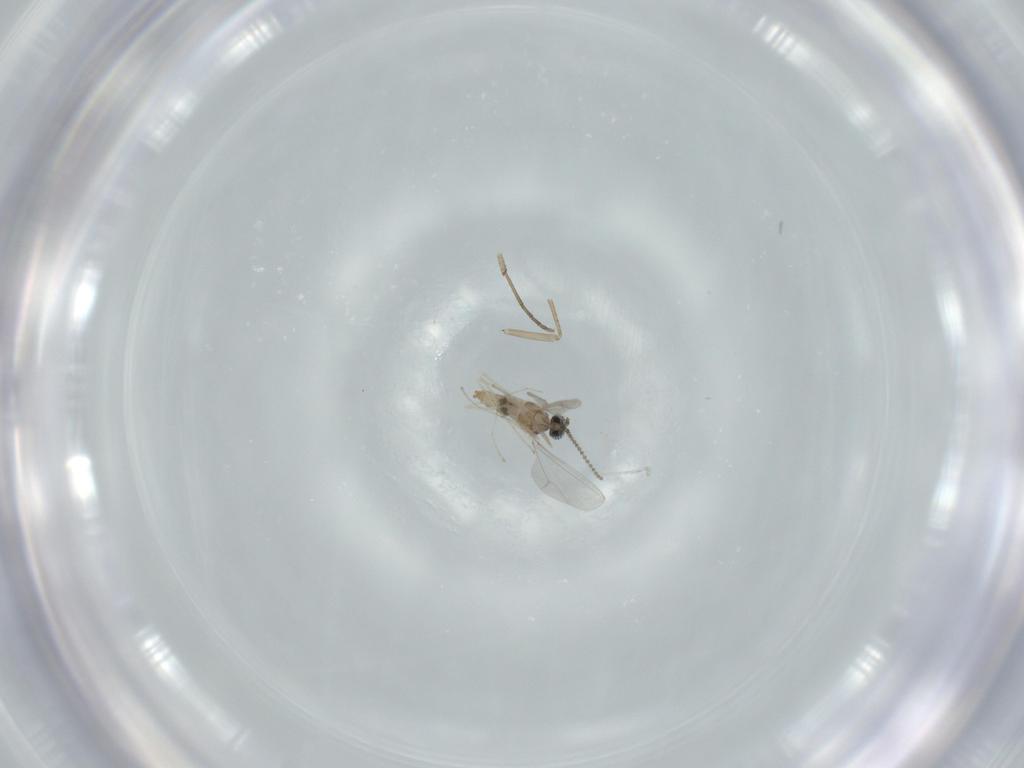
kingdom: Animalia
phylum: Arthropoda
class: Insecta
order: Diptera
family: Cecidomyiidae
